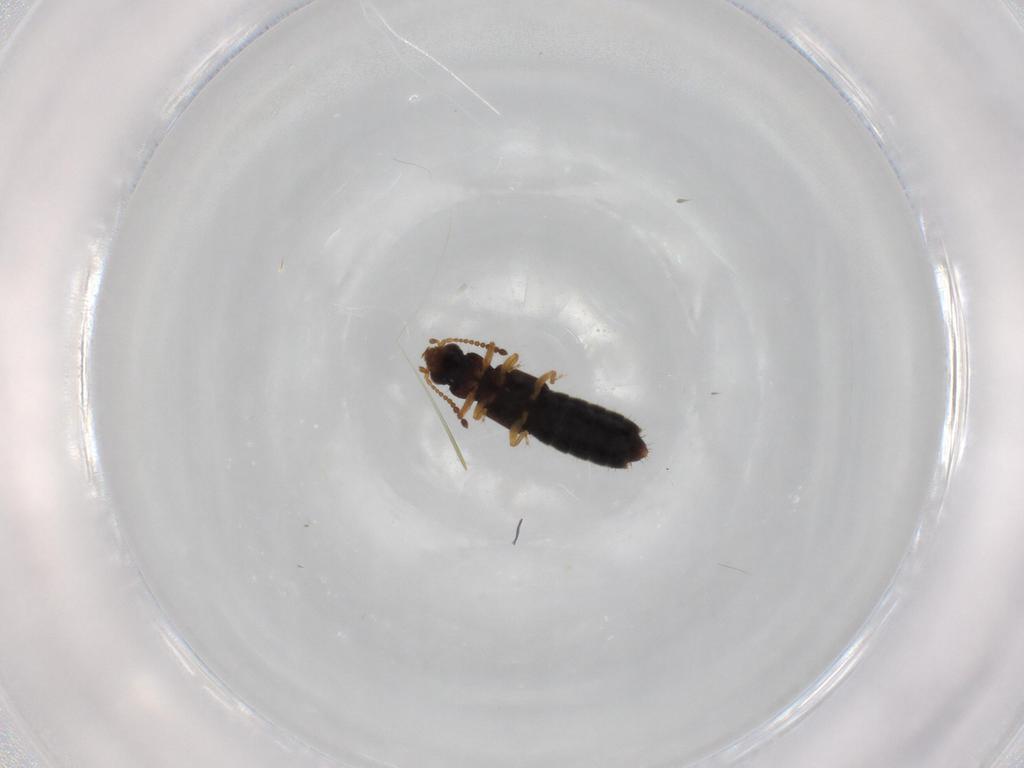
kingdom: Animalia
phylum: Arthropoda
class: Insecta
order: Coleoptera
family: Staphylinidae
